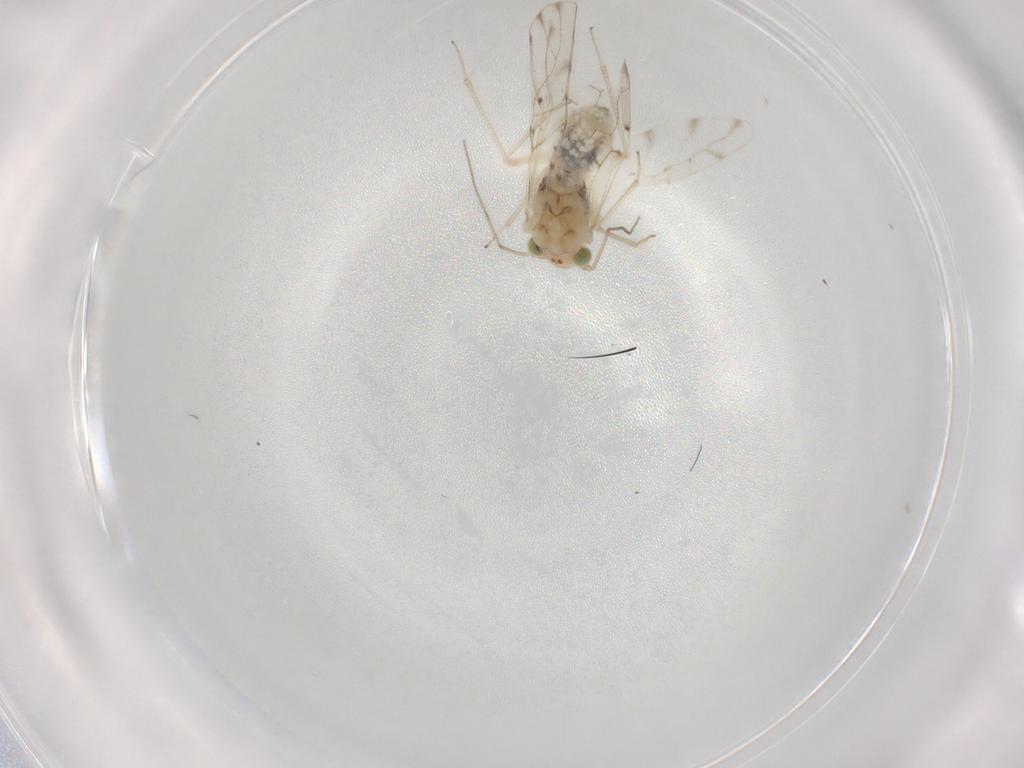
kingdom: Animalia
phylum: Arthropoda
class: Insecta
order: Psocodea
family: Ectopsocidae
